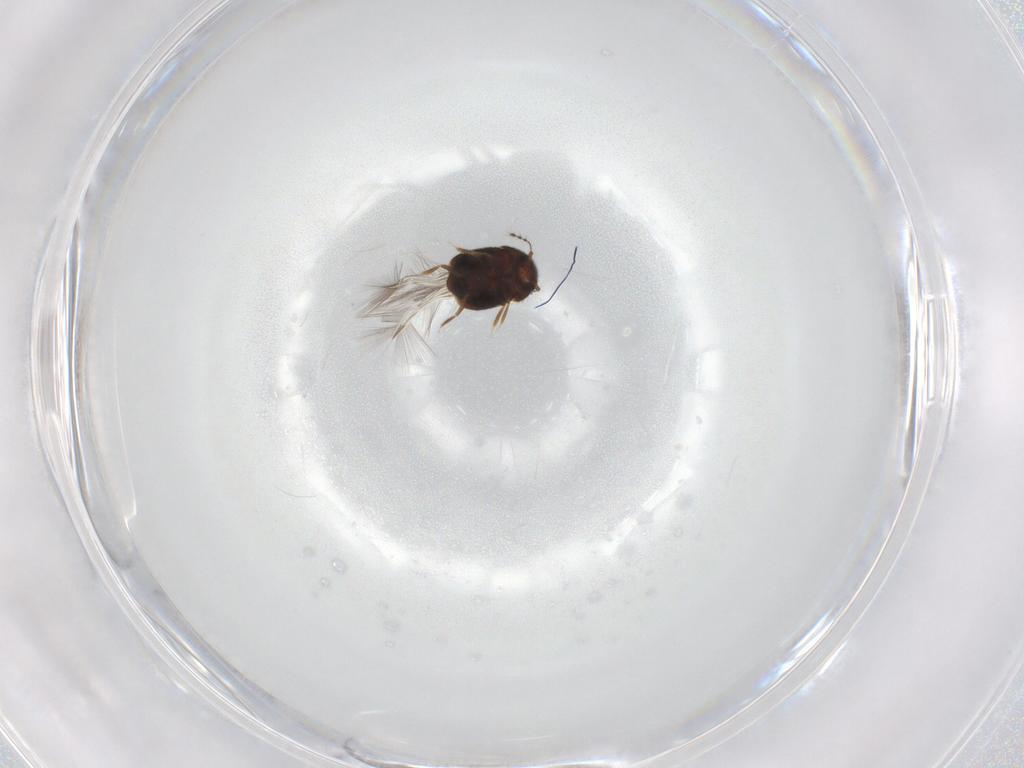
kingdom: Animalia
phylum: Arthropoda
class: Insecta
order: Coleoptera
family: Ptiliidae
